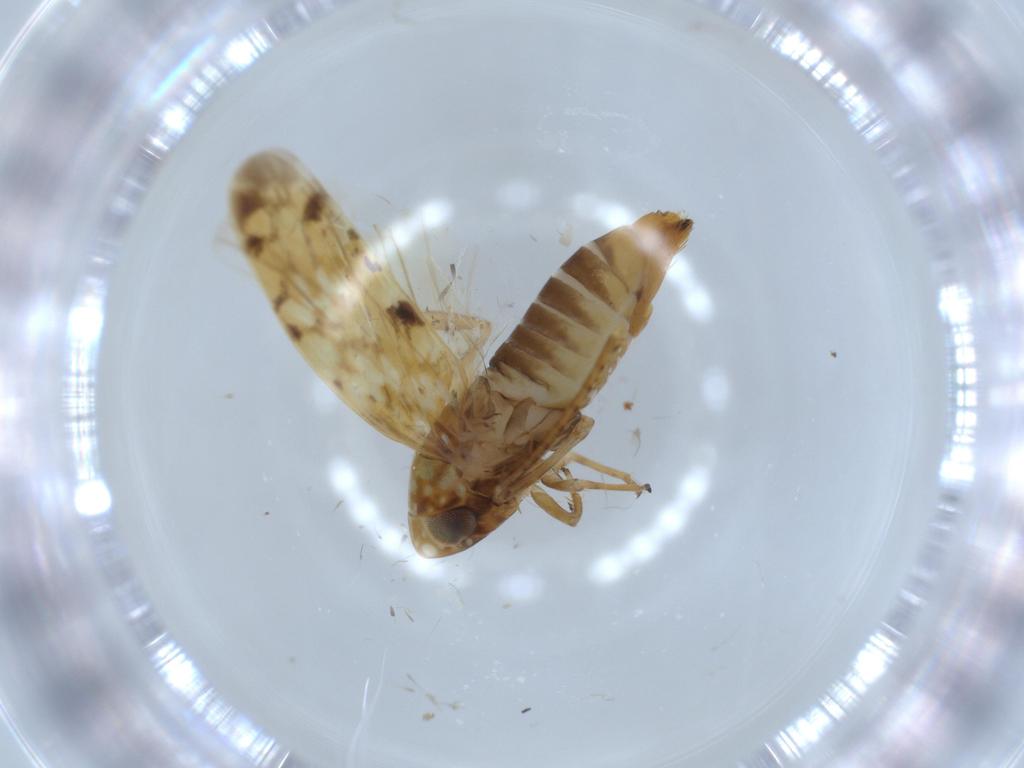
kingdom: Animalia
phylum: Arthropoda
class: Insecta
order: Hemiptera
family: Cicadellidae
